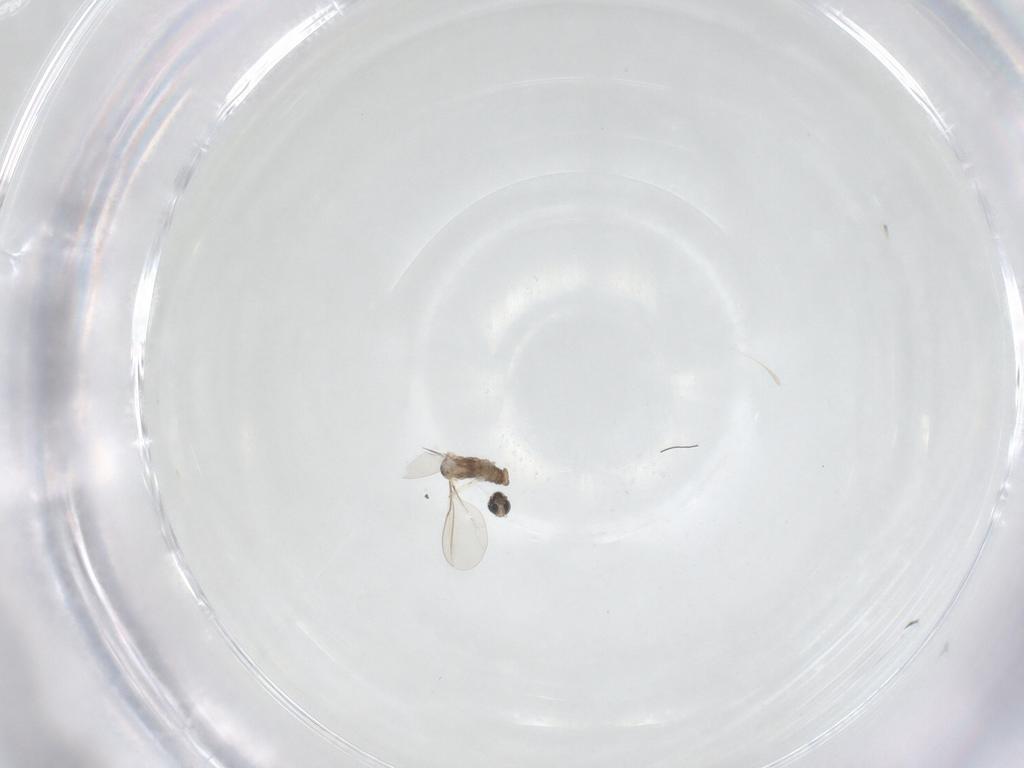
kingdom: Animalia
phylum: Arthropoda
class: Insecta
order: Diptera
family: Cecidomyiidae
